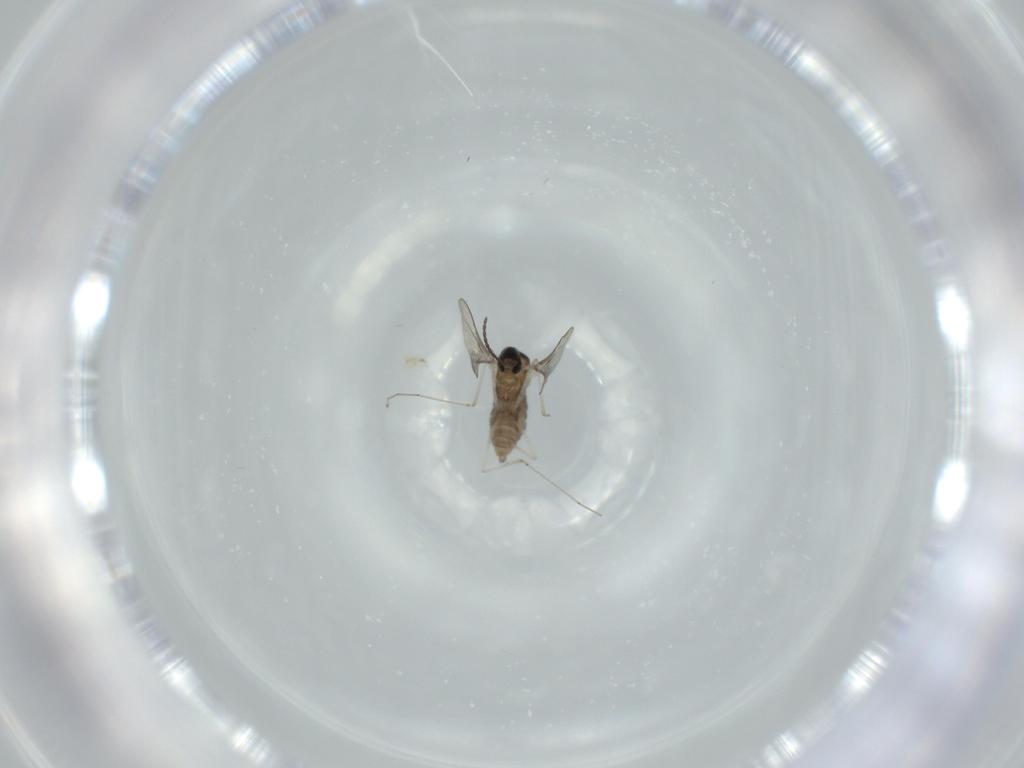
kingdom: Animalia
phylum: Arthropoda
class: Insecta
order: Diptera
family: Cecidomyiidae
